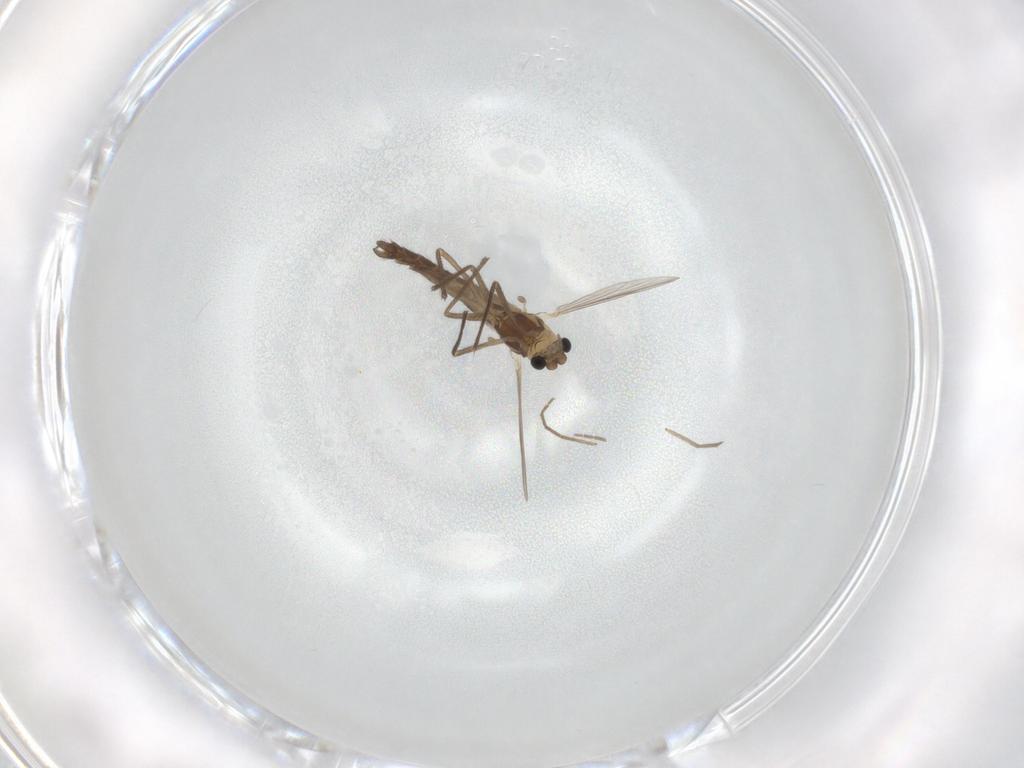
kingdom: Animalia
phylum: Arthropoda
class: Insecta
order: Diptera
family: Chironomidae
